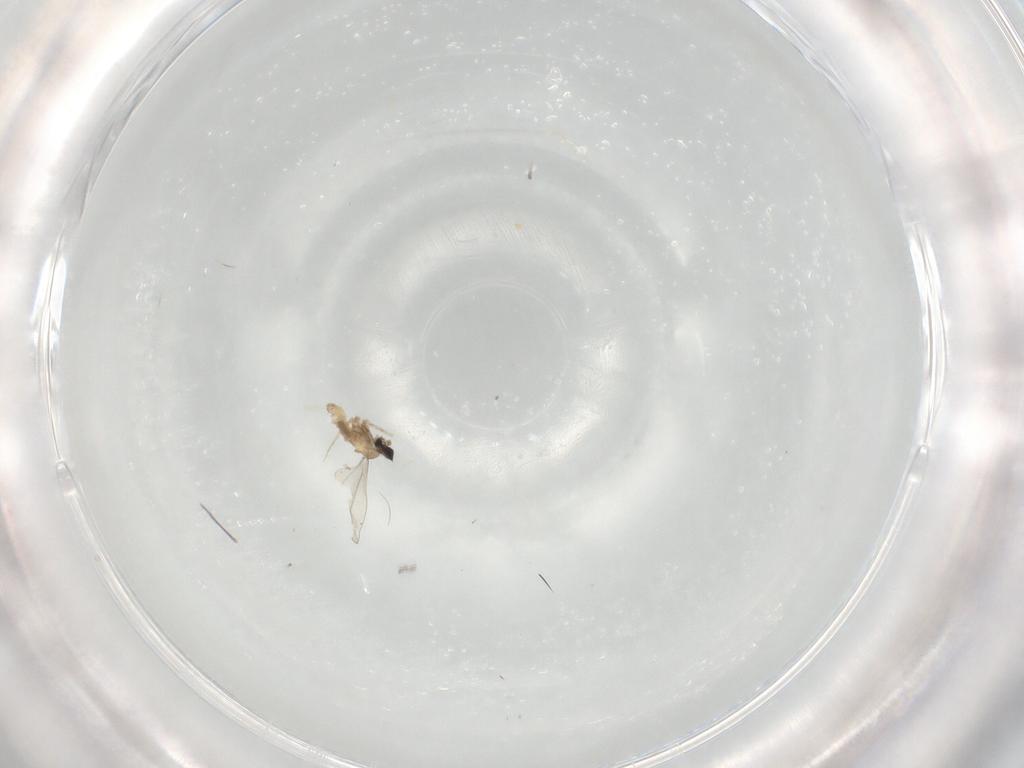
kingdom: Animalia
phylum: Arthropoda
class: Insecta
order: Diptera
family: Cecidomyiidae
